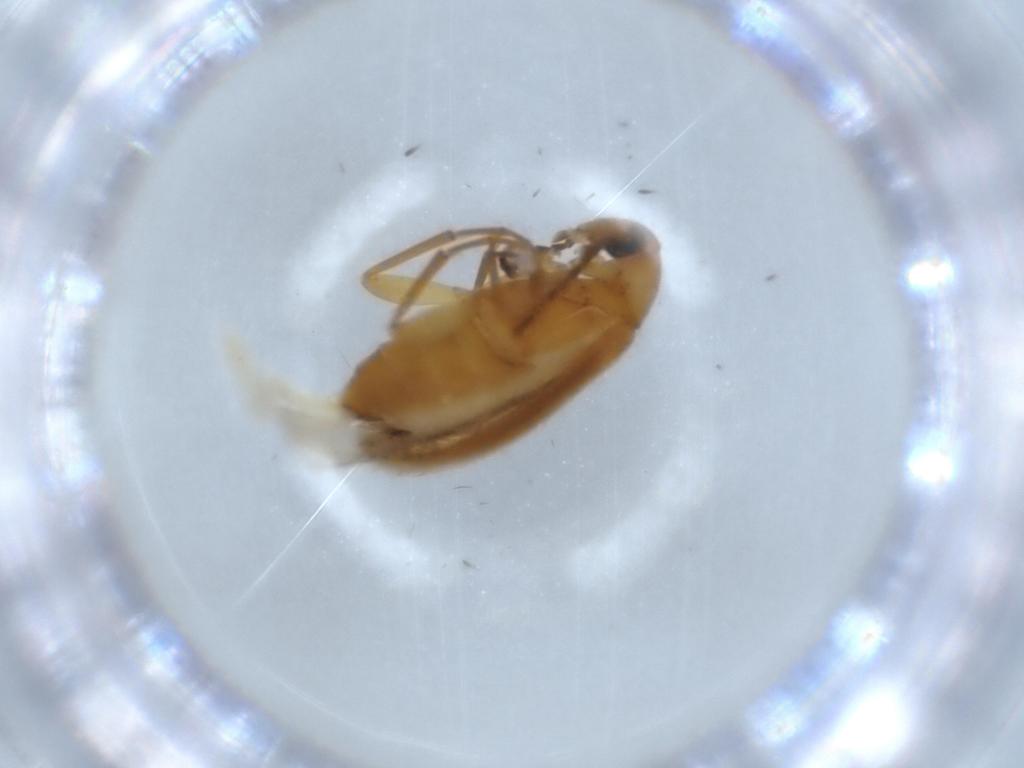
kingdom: Animalia
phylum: Arthropoda
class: Insecta
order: Coleoptera
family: Scraptiidae
